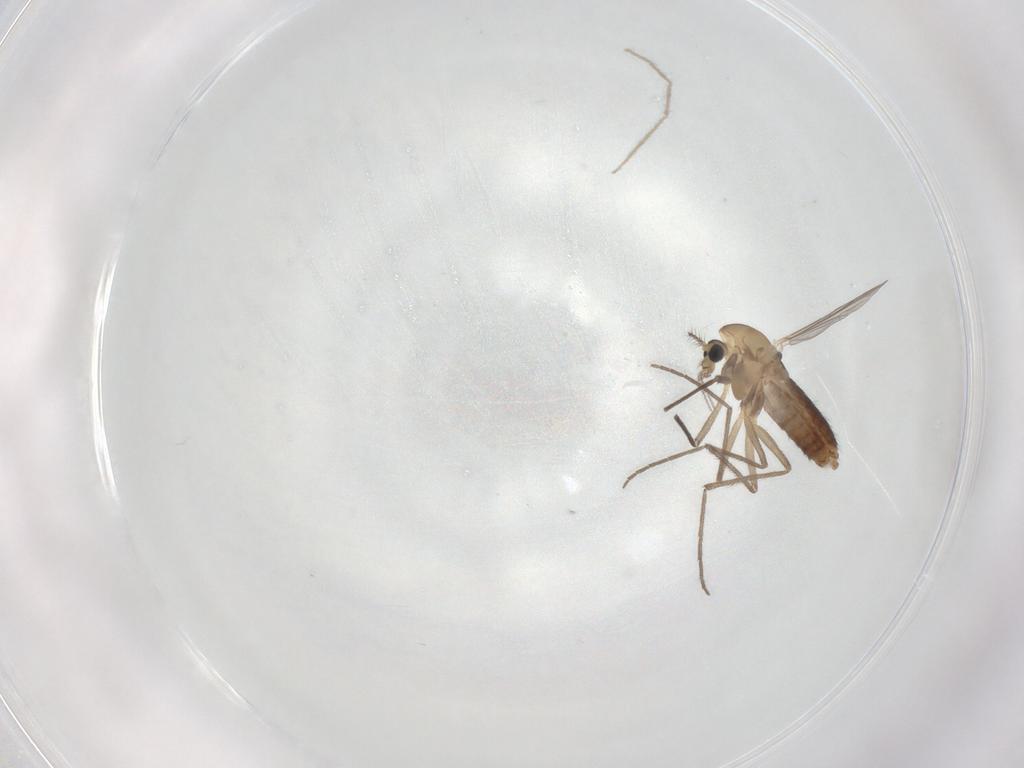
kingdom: Animalia
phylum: Arthropoda
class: Insecta
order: Diptera
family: Chironomidae
